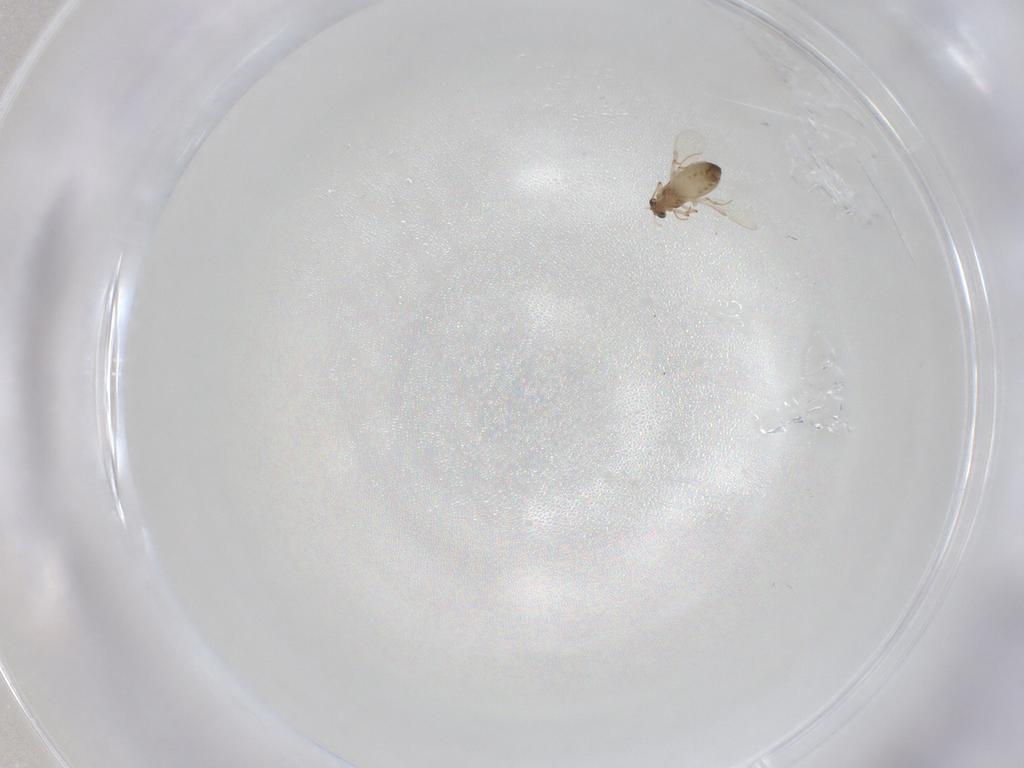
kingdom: Animalia
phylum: Arthropoda
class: Insecta
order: Diptera
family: Chironomidae
